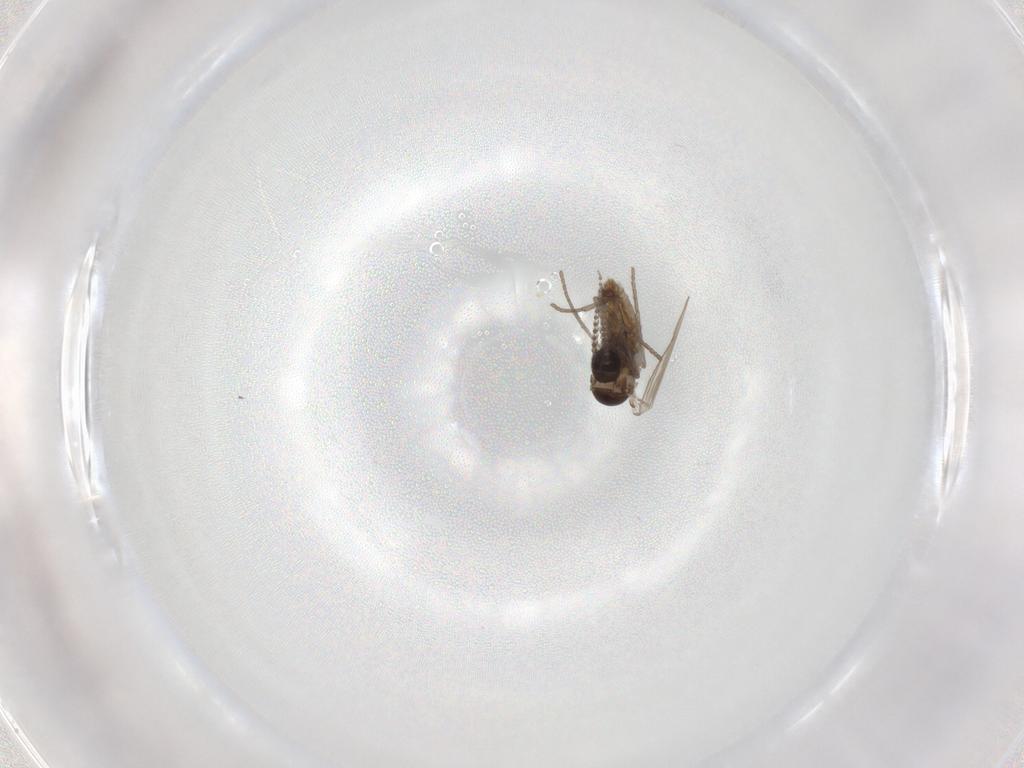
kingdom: Animalia
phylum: Arthropoda
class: Insecta
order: Diptera
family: Psychodidae
